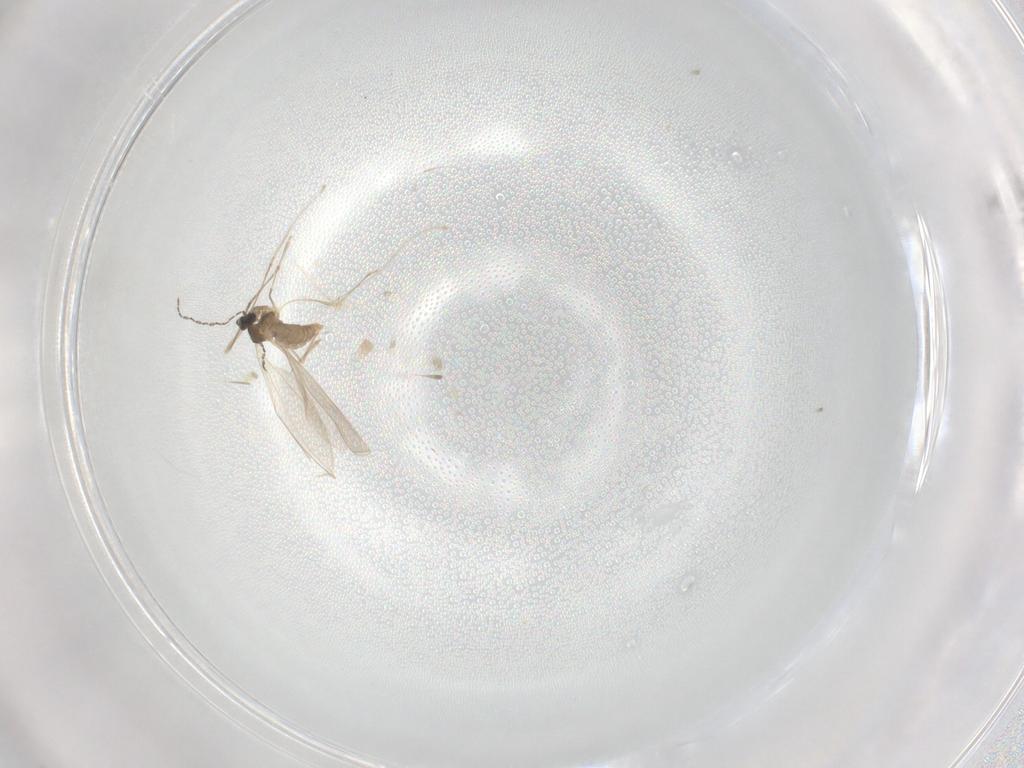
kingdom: Animalia
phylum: Arthropoda
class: Insecta
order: Diptera
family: Cecidomyiidae
